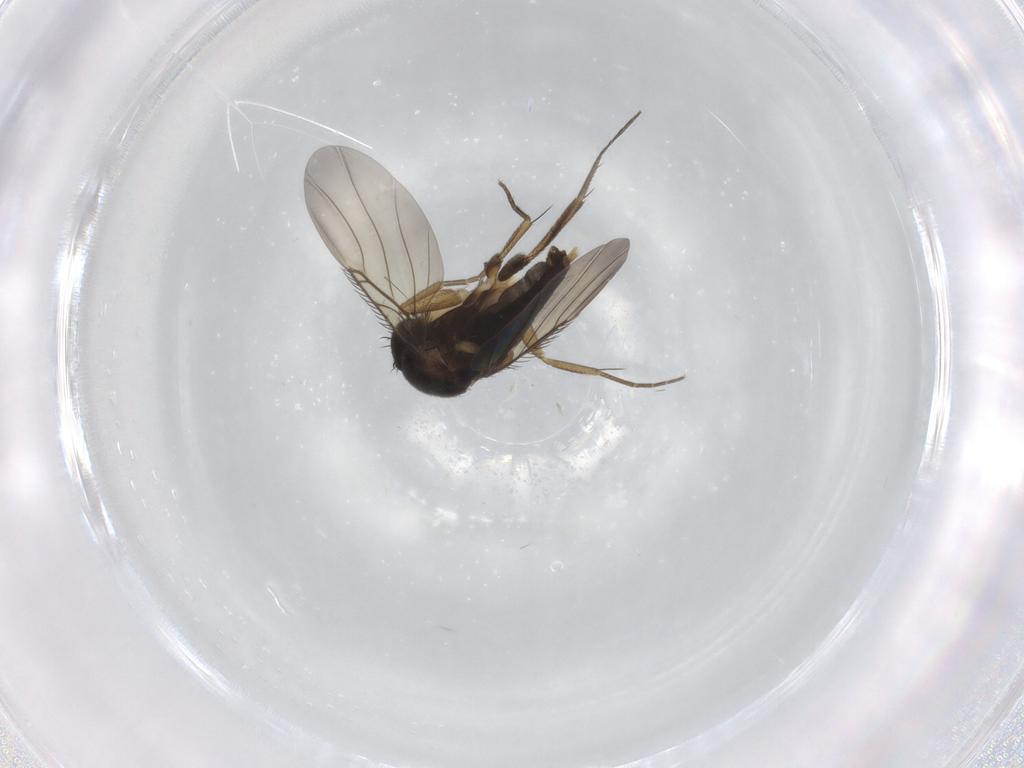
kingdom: Animalia
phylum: Arthropoda
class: Insecta
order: Diptera
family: Phoridae
